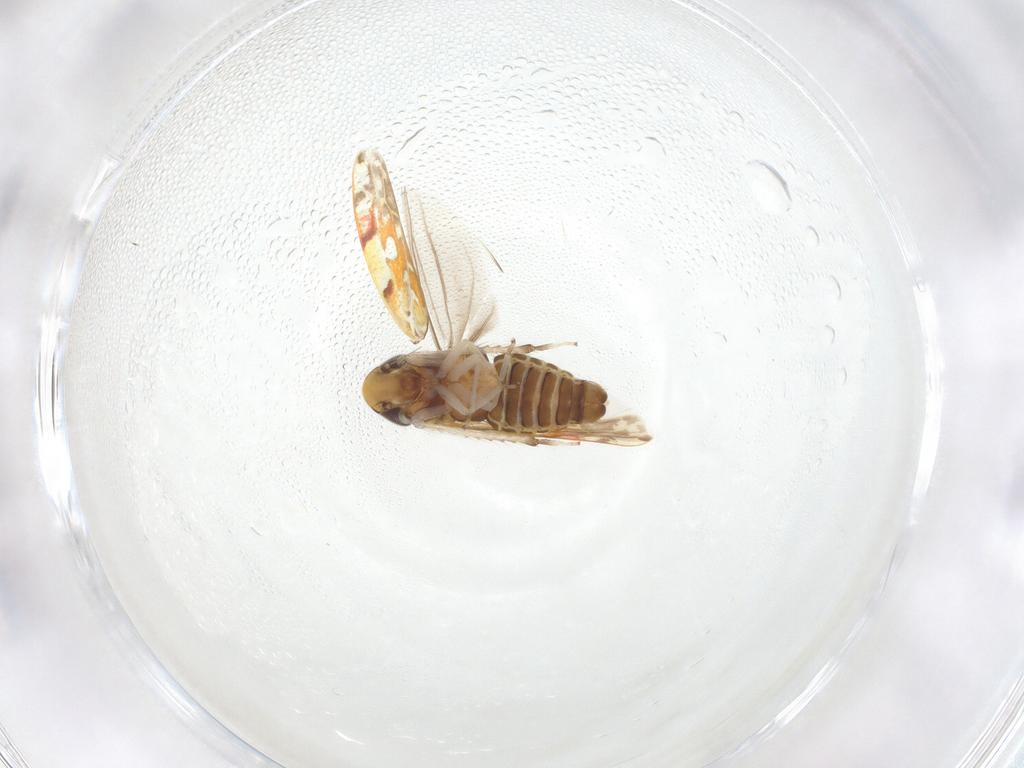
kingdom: Animalia
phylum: Arthropoda
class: Insecta
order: Hemiptera
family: Cicadellidae
